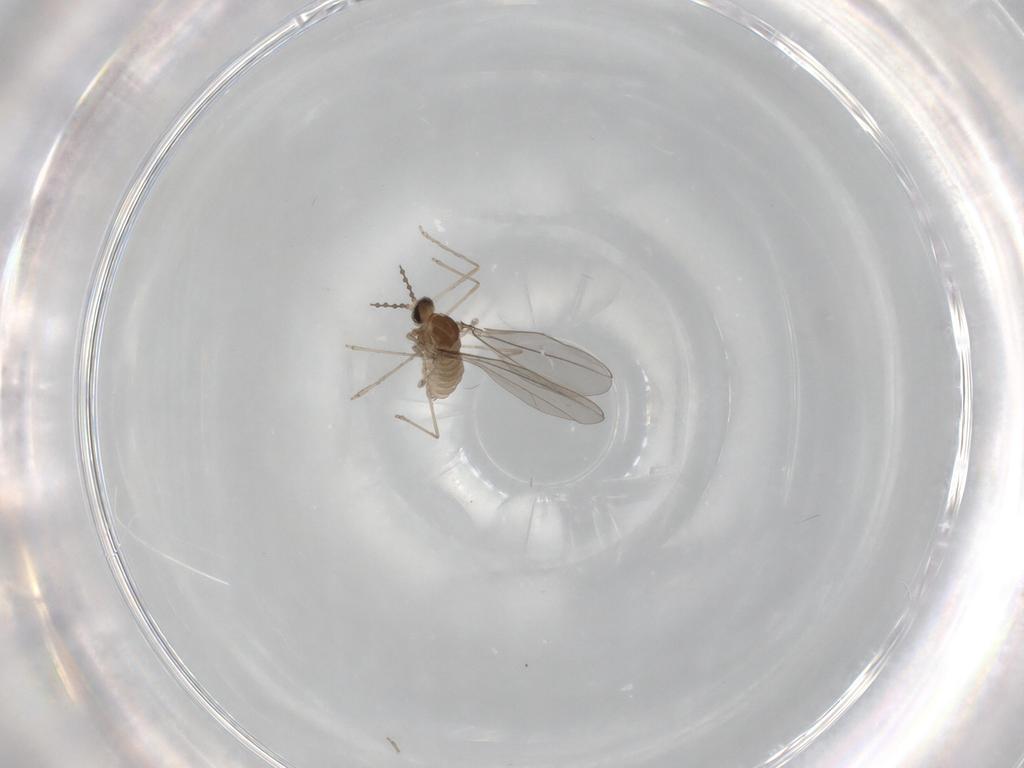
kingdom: Animalia
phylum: Arthropoda
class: Insecta
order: Diptera
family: Cecidomyiidae
